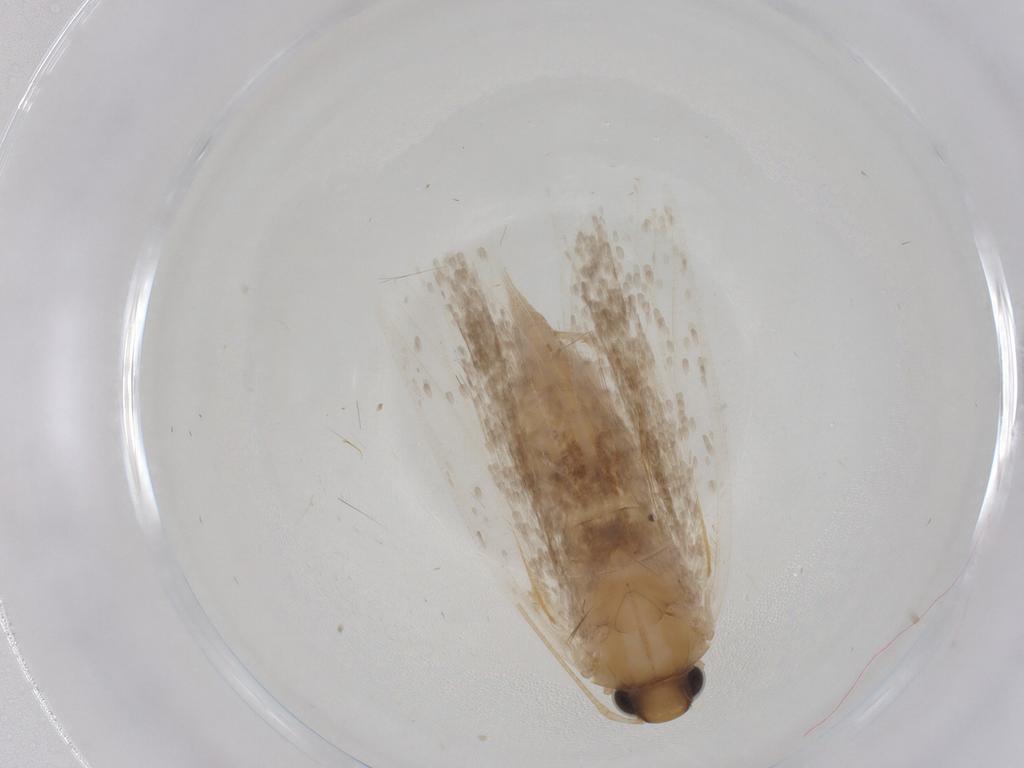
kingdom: Animalia
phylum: Arthropoda
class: Insecta
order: Lepidoptera
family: Gelechiidae
